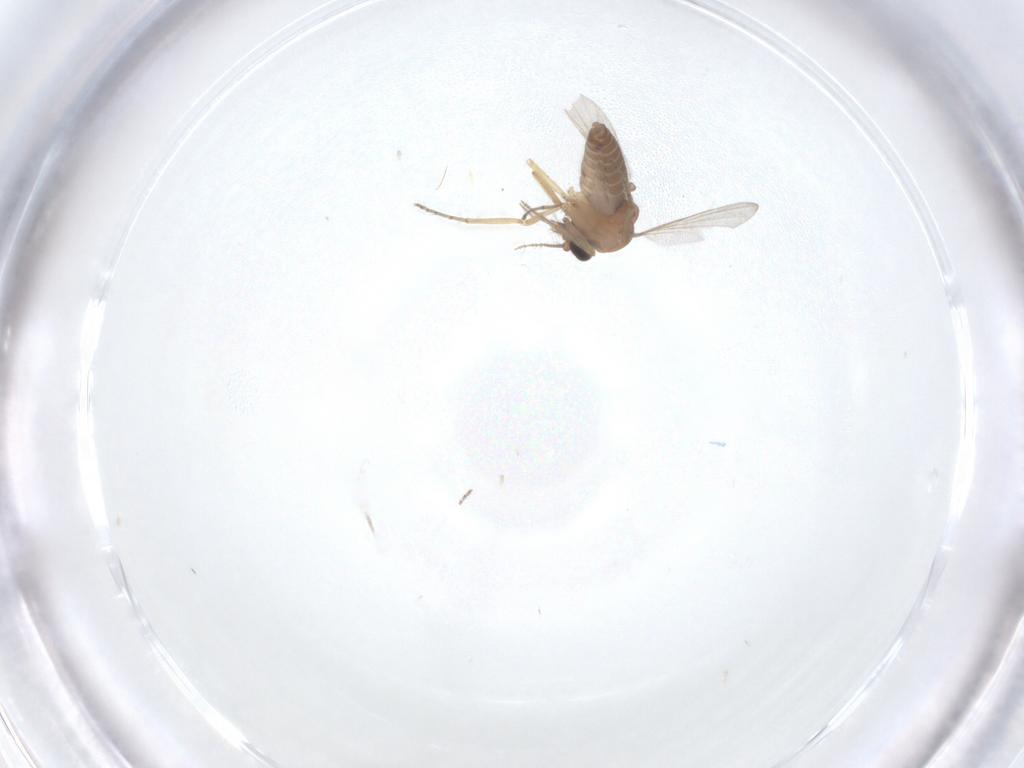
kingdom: Animalia
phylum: Arthropoda
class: Insecta
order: Diptera
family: Ceratopogonidae
